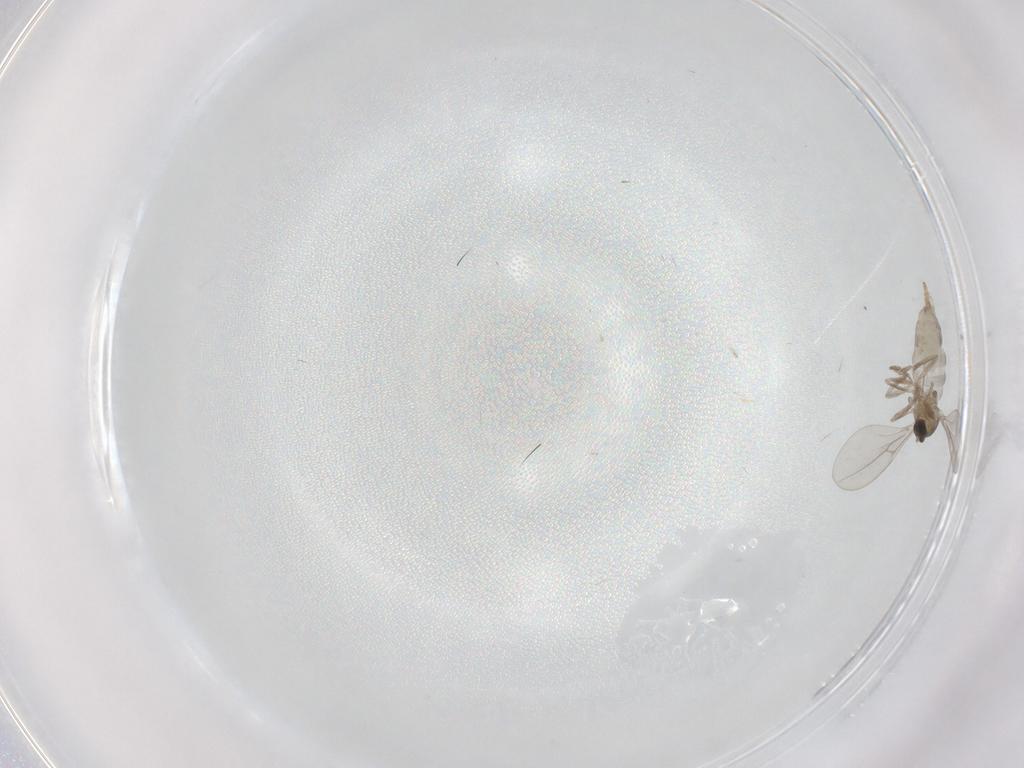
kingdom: Animalia
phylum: Arthropoda
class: Insecta
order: Diptera
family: Cecidomyiidae
